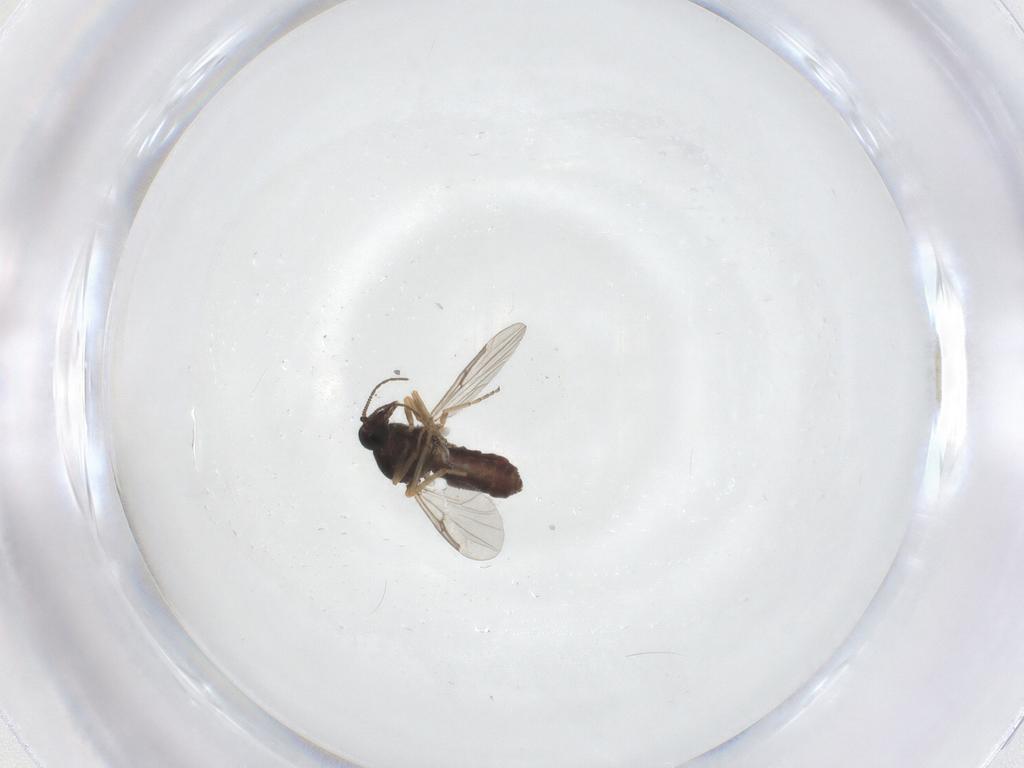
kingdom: Animalia
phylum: Arthropoda
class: Insecta
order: Diptera
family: Ceratopogonidae
